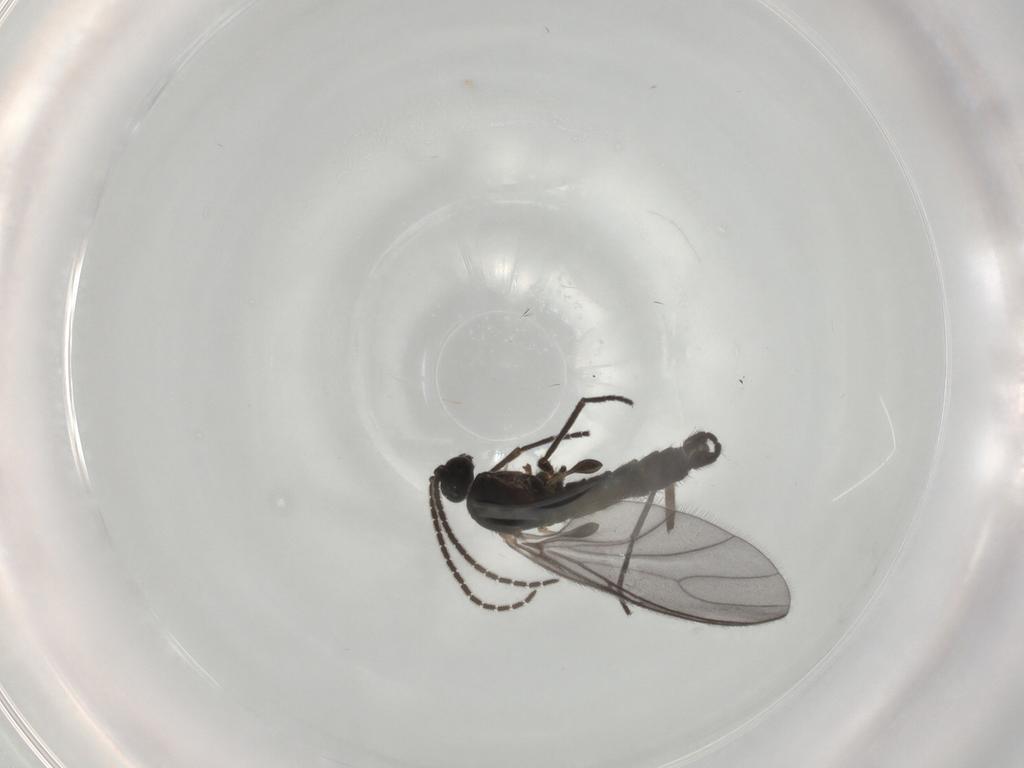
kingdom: Animalia
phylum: Arthropoda
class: Insecta
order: Diptera
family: Sciaridae
